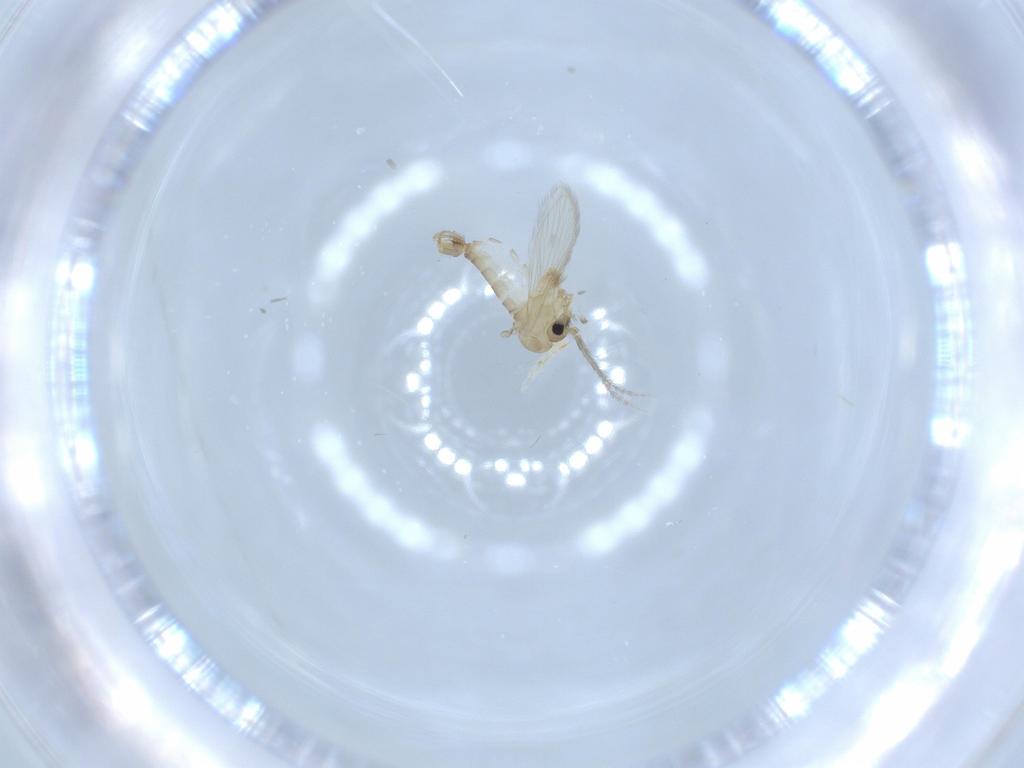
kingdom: Animalia
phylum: Arthropoda
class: Insecta
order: Diptera
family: Psychodidae
